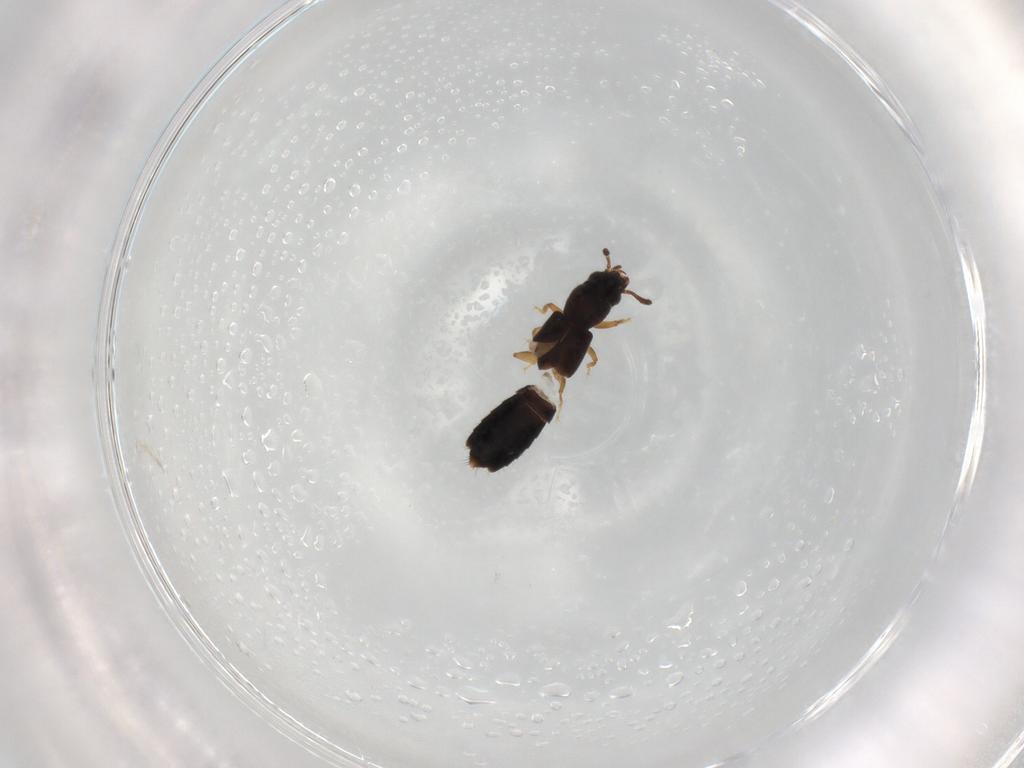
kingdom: Animalia
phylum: Arthropoda
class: Insecta
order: Coleoptera
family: Staphylinidae
